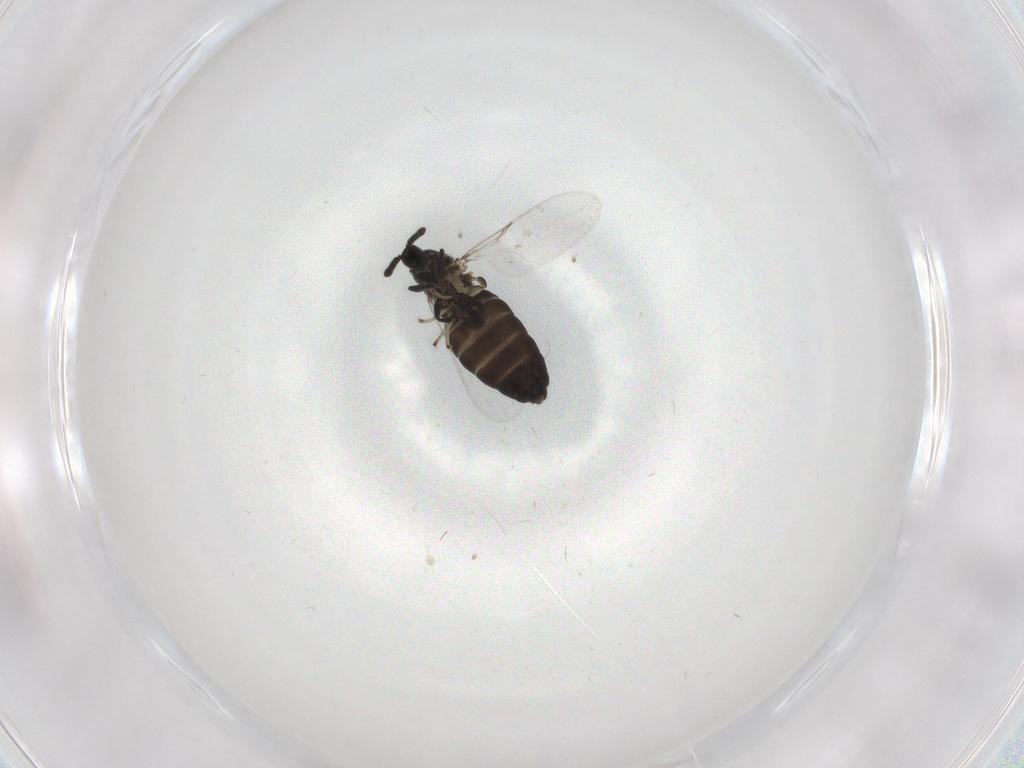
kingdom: Animalia
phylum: Arthropoda
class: Insecta
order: Diptera
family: Scatopsidae
